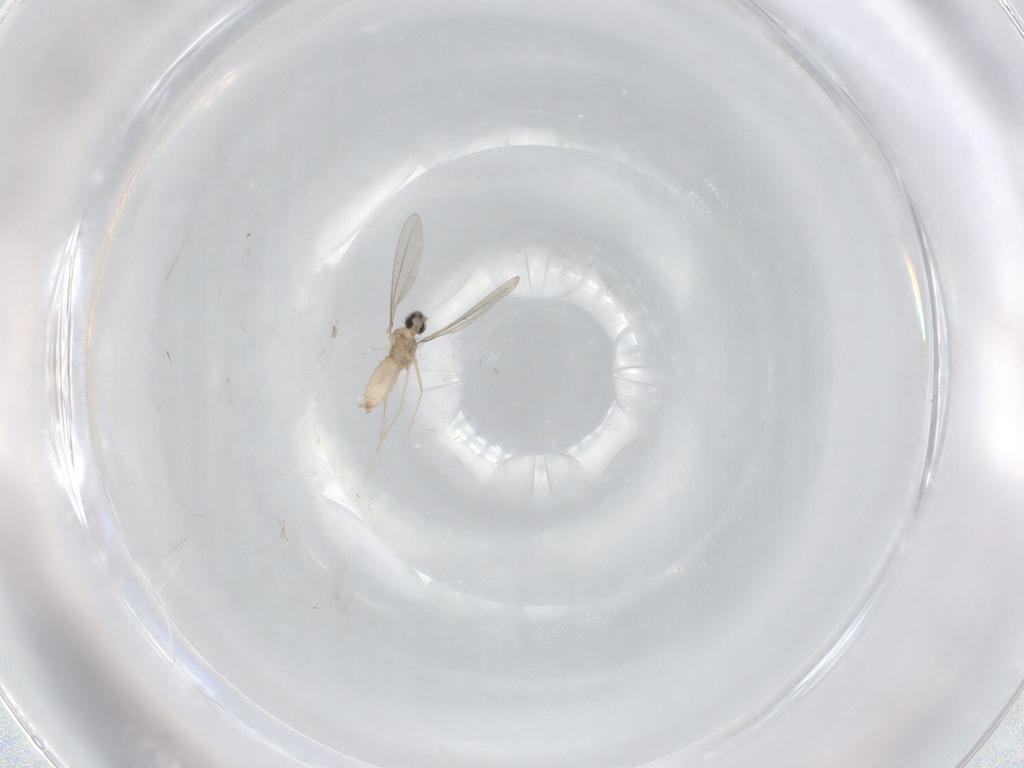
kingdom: Animalia
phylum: Arthropoda
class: Insecta
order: Diptera
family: Cecidomyiidae
